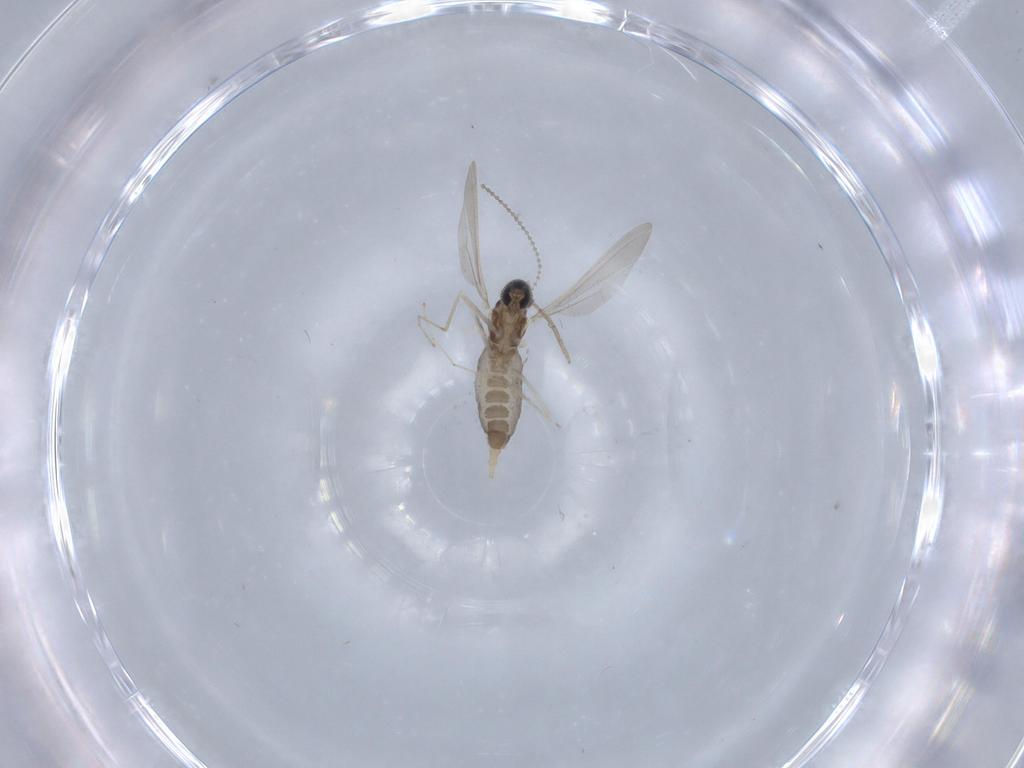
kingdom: Animalia
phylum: Arthropoda
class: Insecta
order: Diptera
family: Cecidomyiidae
